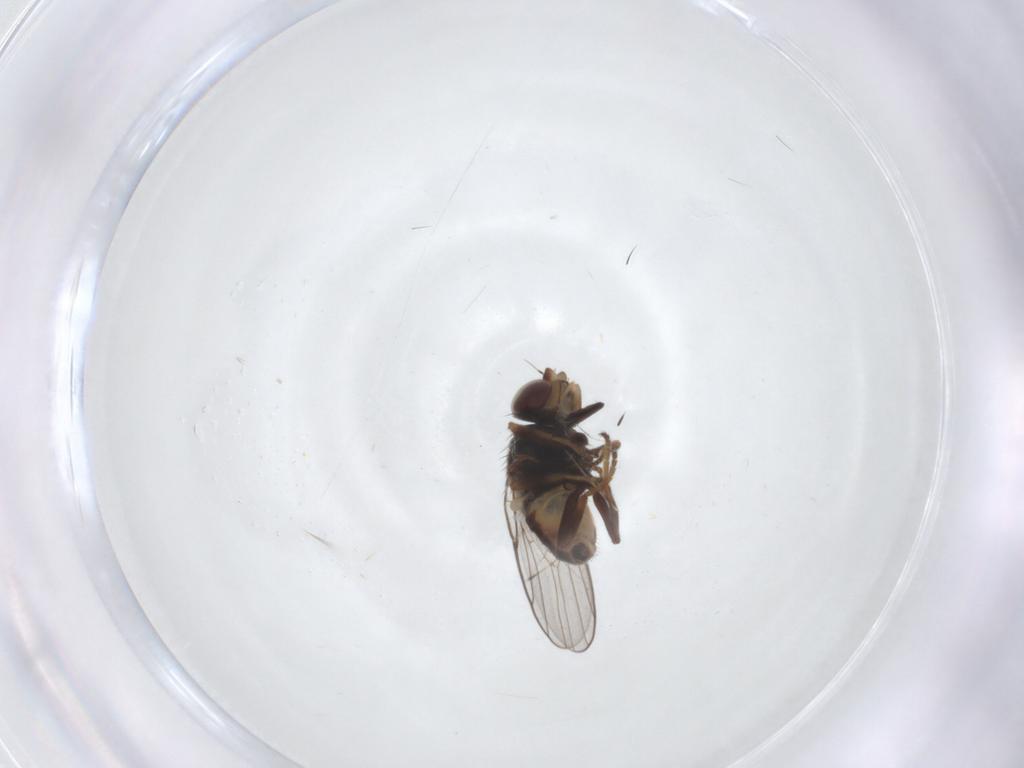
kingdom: Animalia
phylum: Arthropoda
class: Insecta
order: Diptera
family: Chloropidae
